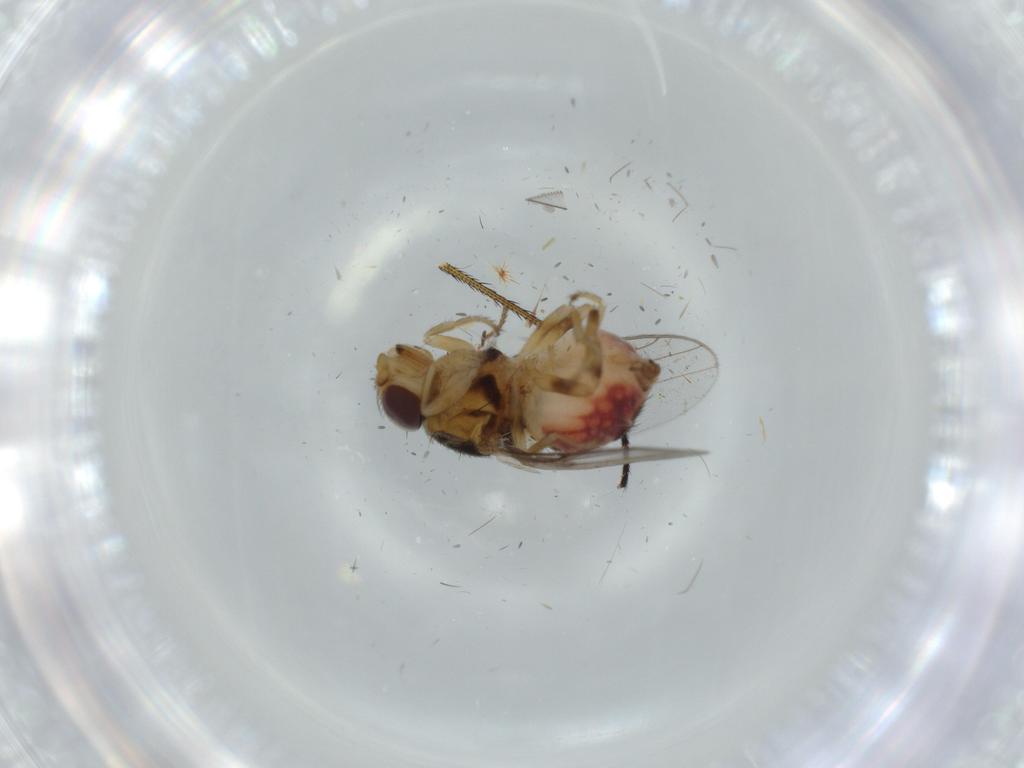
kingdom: Animalia
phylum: Arthropoda
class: Insecta
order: Diptera
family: Chloropidae
